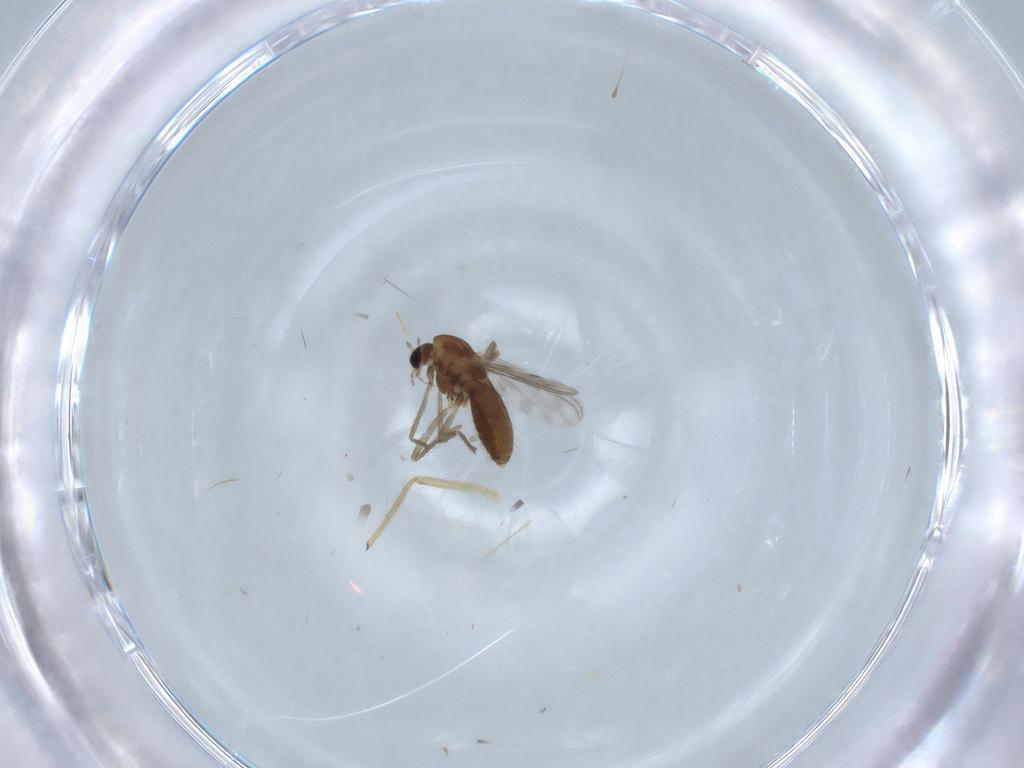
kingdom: Animalia
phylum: Arthropoda
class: Insecta
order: Diptera
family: Chironomidae
